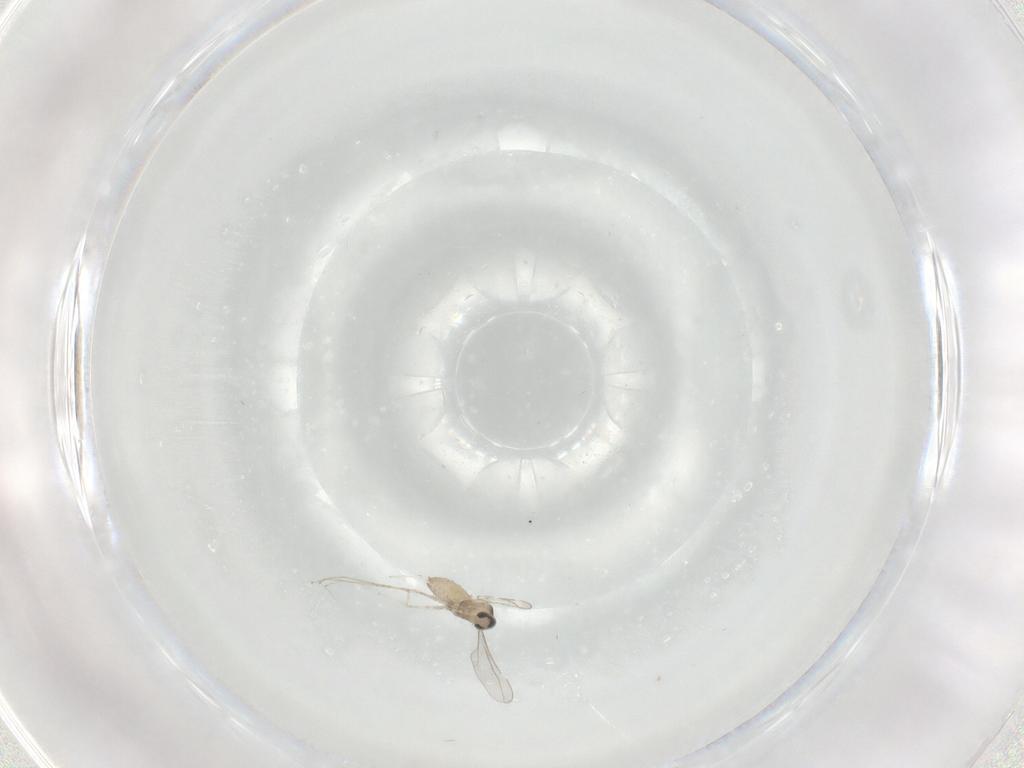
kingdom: Animalia
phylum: Arthropoda
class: Insecta
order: Diptera
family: Cecidomyiidae
